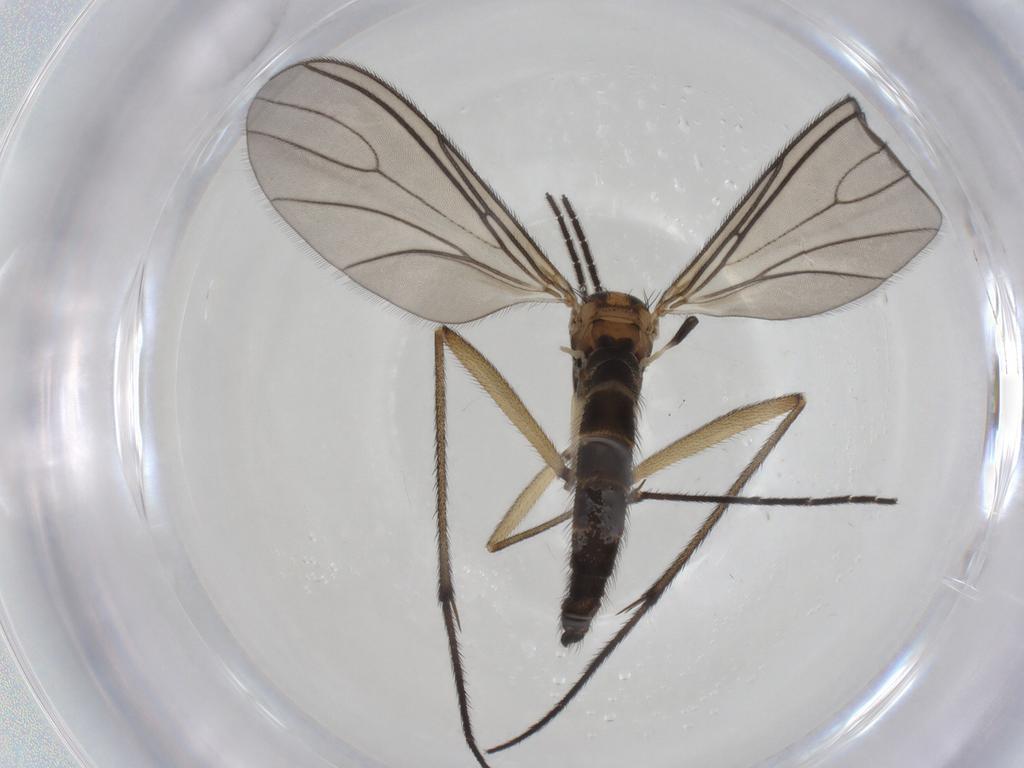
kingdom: Animalia
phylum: Arthropoda
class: Insecta
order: Diptera
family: Sciaridae
